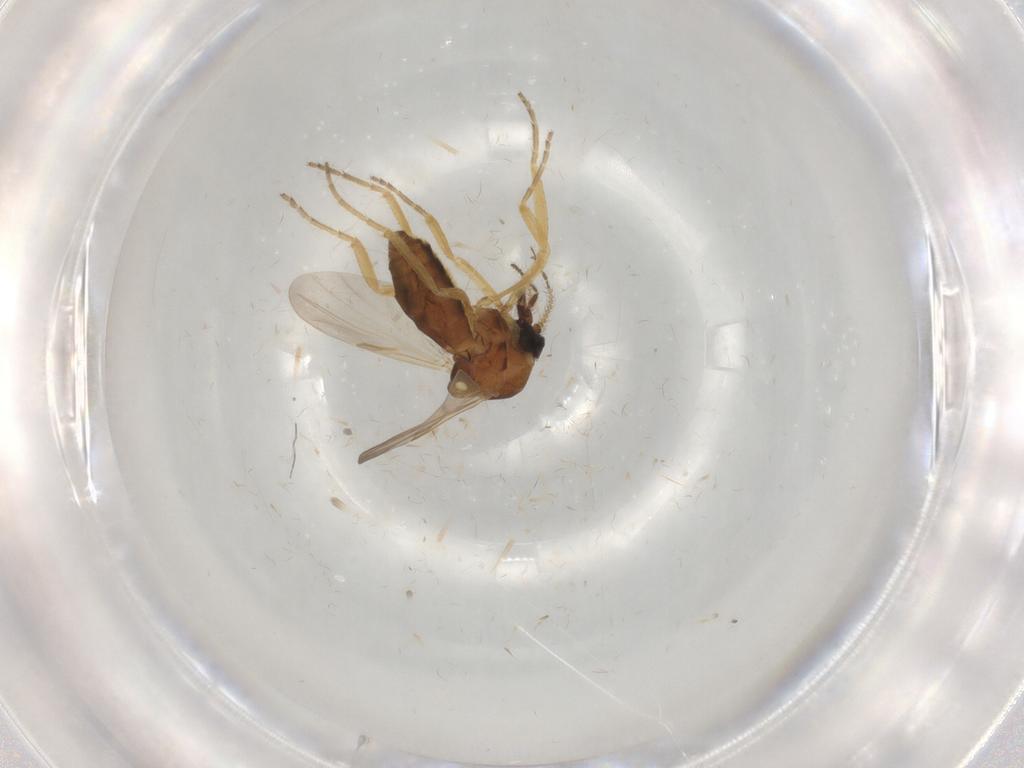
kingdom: Animalia
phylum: Arthropoda
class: Insecta
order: Diptera
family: Ceratopogonidae
